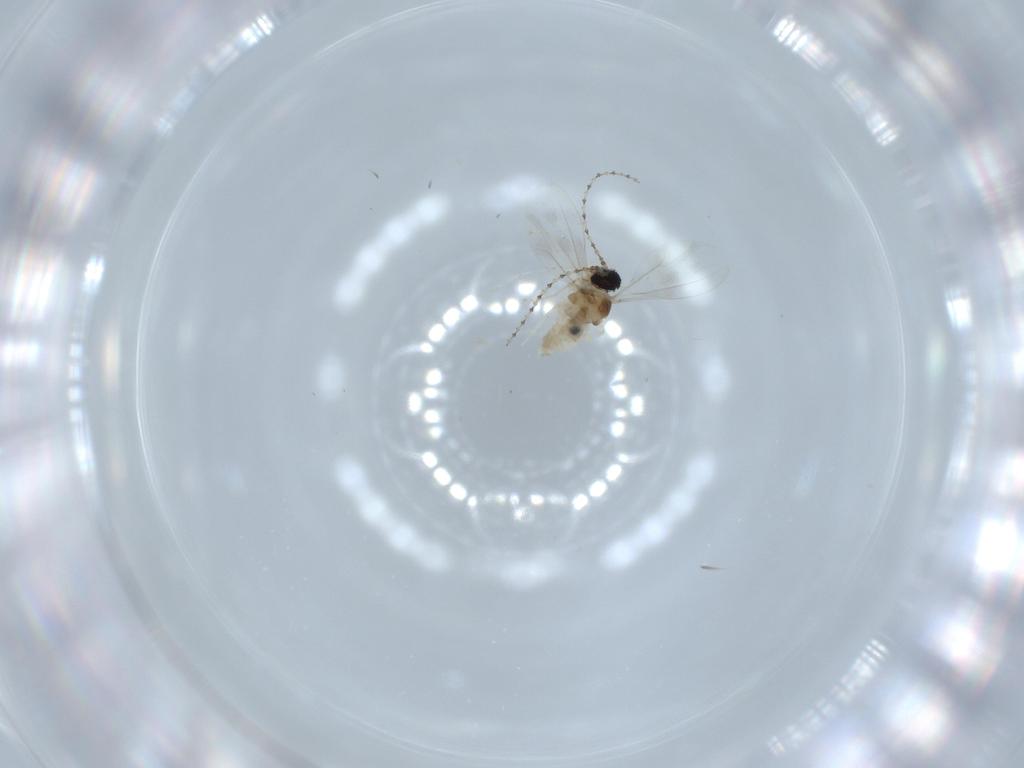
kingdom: Animalia
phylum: Arthropoda
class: Insecta
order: Diptera
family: Cecidomyiidae
